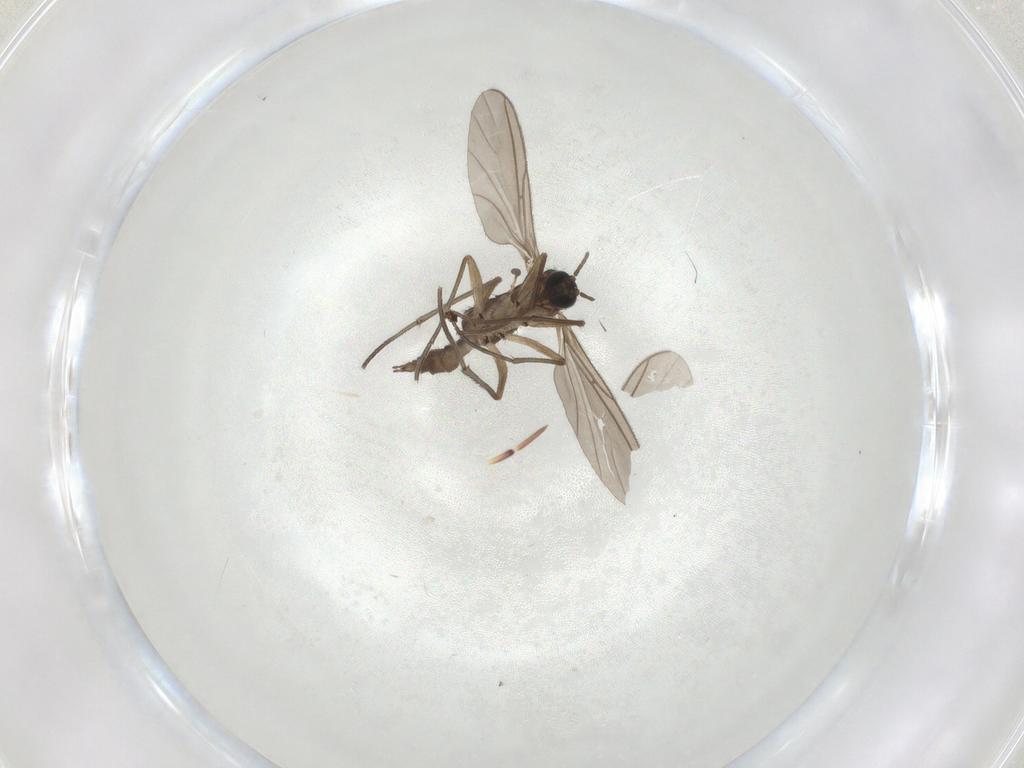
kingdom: Animalia
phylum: Arthropoda
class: Insecta
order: Diptera
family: Sciaridae
